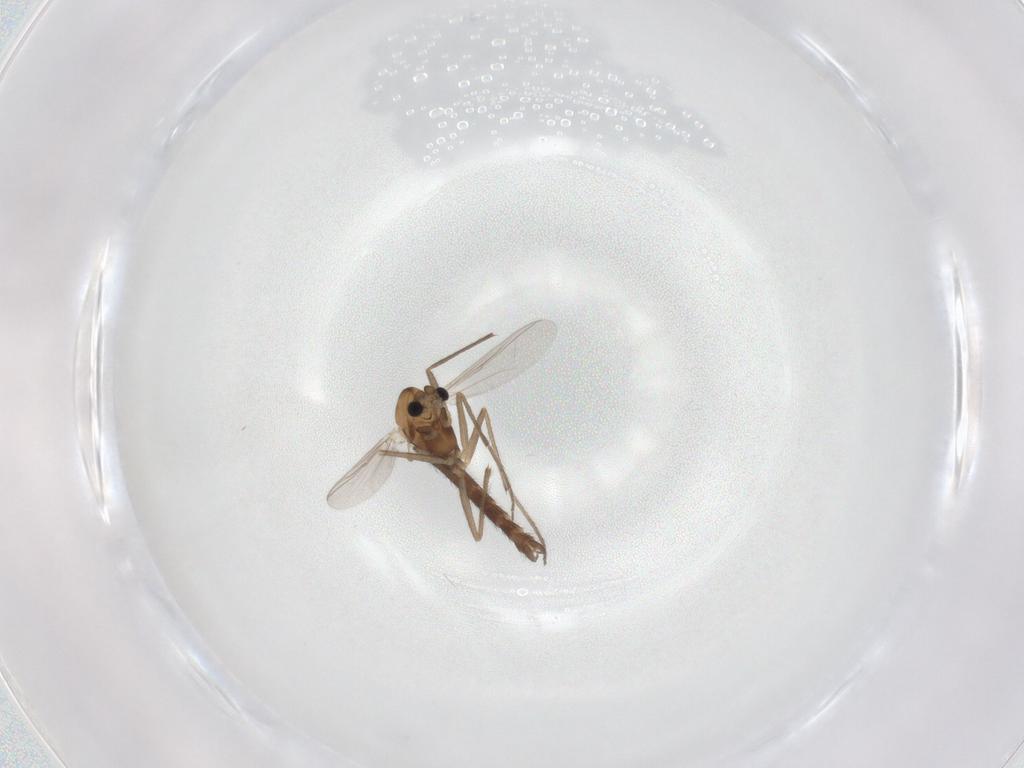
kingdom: Animalia
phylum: Arthropoda
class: Insecta
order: Diptera
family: Chironomidae
